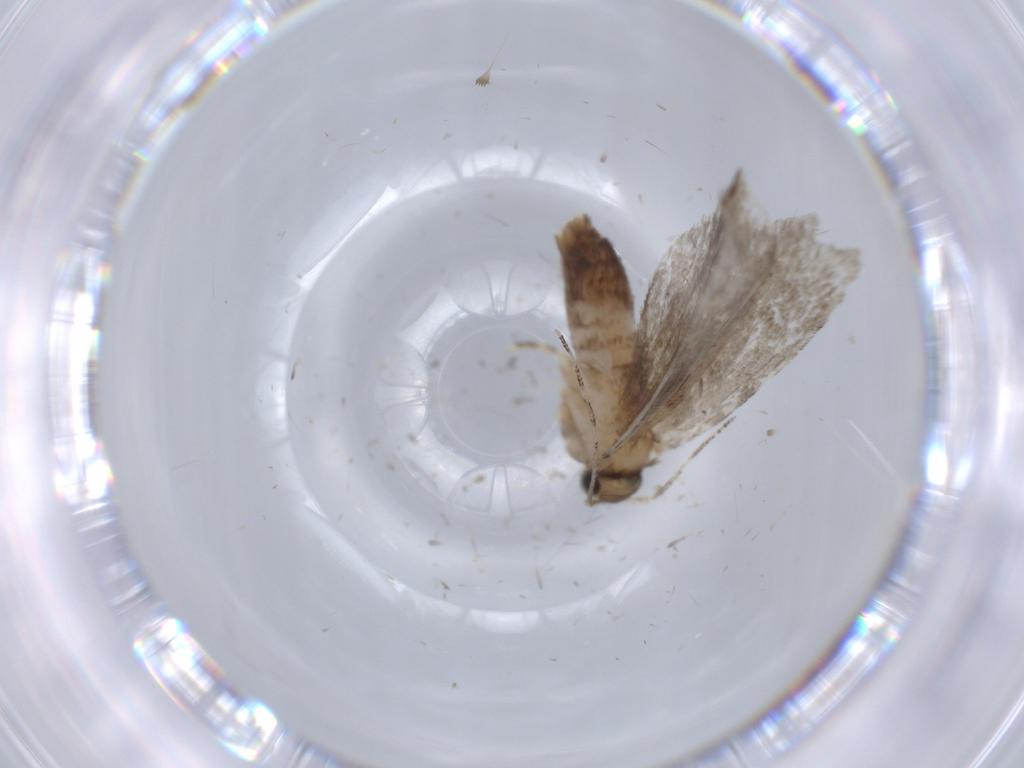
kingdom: Animalia
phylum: Arthropoda
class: Insecta
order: Lepidoptera
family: Tineidae
